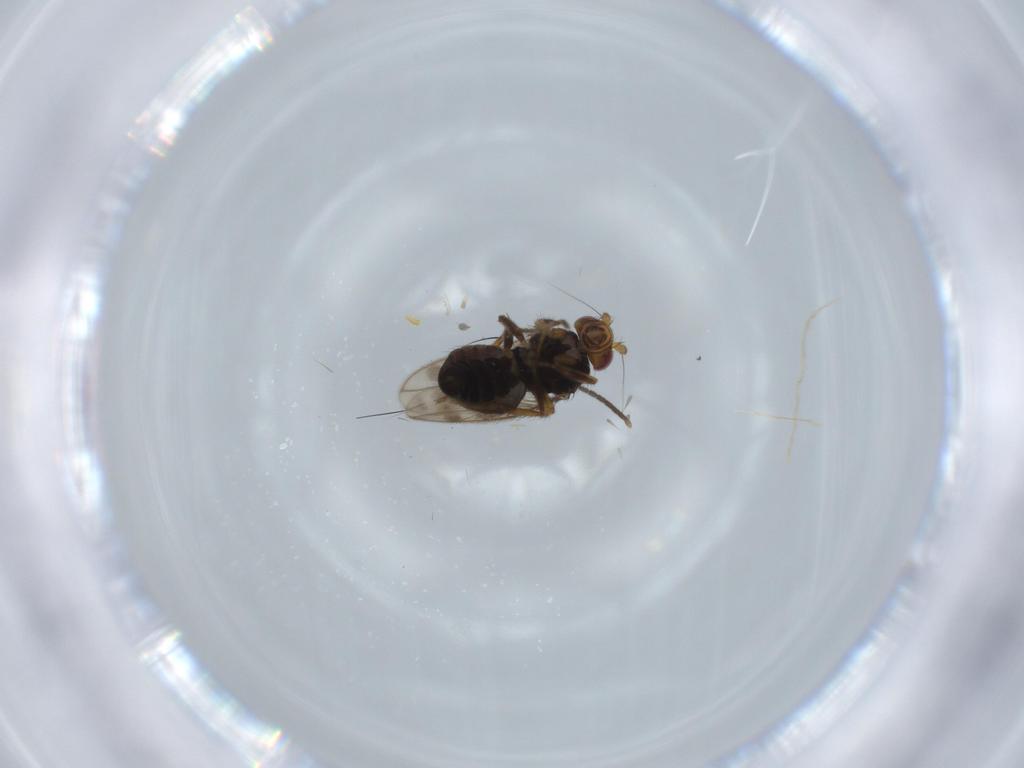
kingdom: Animalia
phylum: Arthropoda
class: Insecta
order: Diptera
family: Sphaeroceridae
